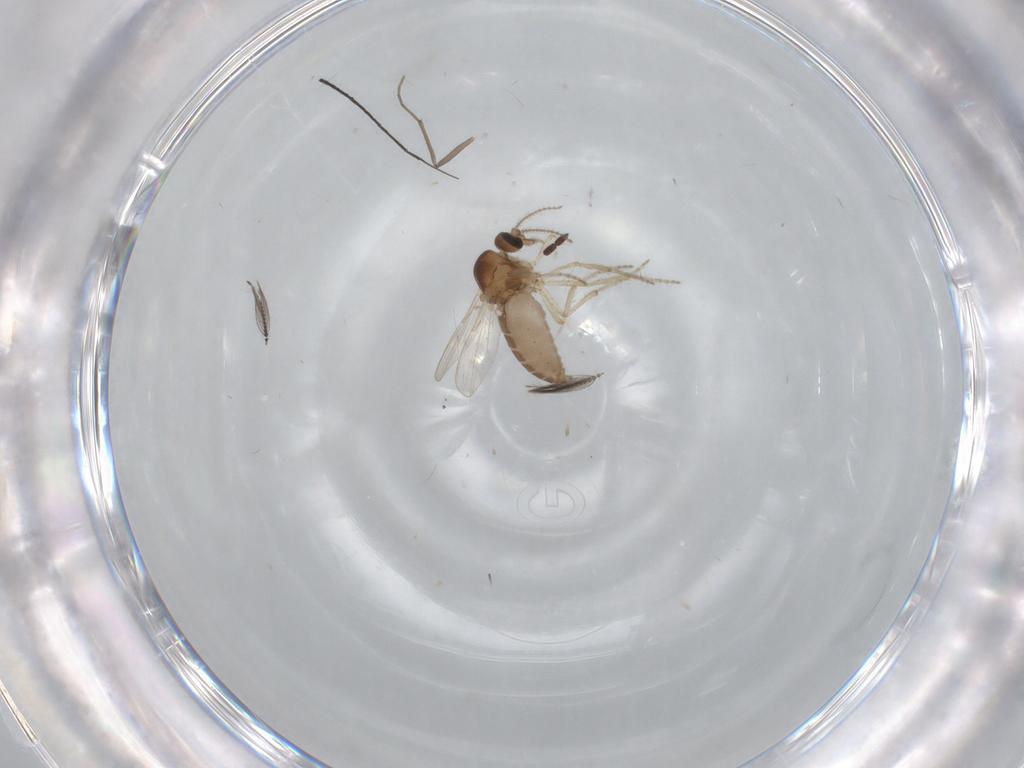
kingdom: Animalia
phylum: Arthropoda
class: Insecta
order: Diptera
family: Ceratopogonidae
